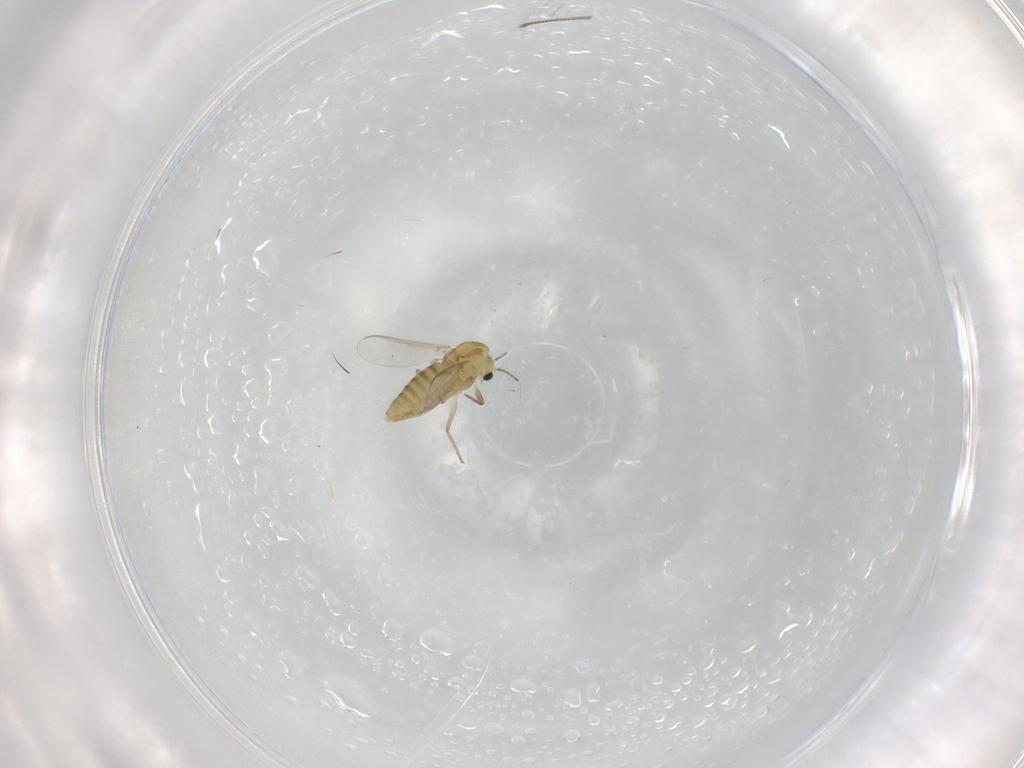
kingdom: Animalia
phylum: Arthropoda
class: Insecta
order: Diptera
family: Chironomidae
